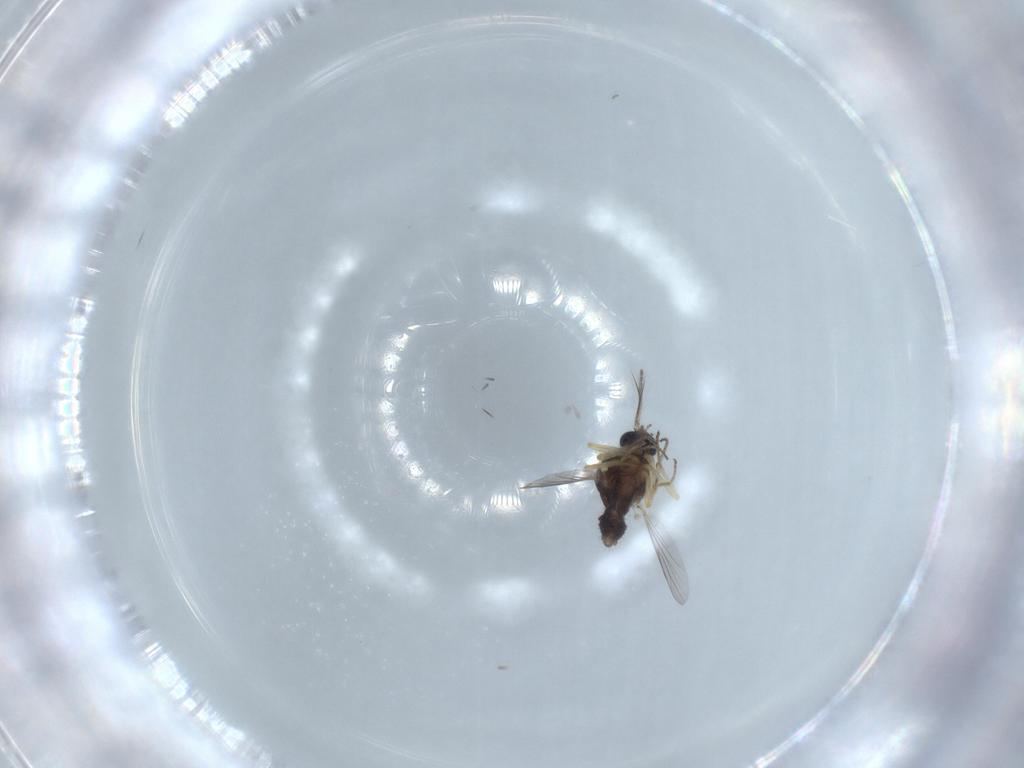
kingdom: Animalia
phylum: Arthropoda
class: Insecta
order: Diptera
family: Ceratopogonidae
